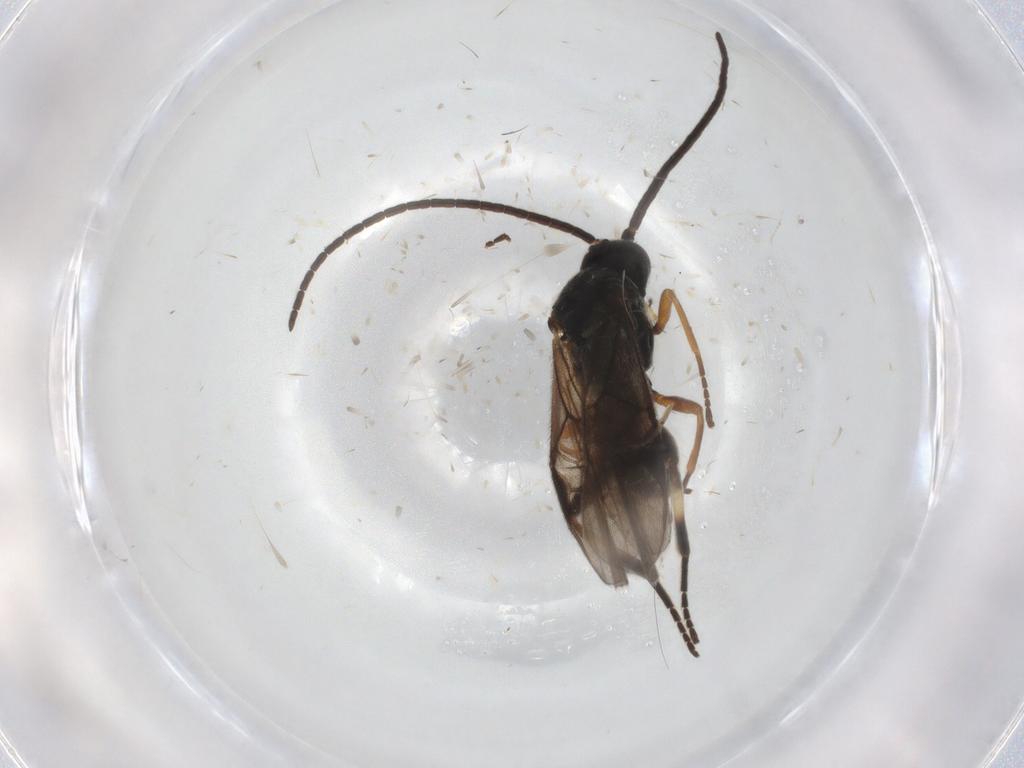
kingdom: Animalia
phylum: Arthropoda
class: Insecta
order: Hymenoptera
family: Braconidae
